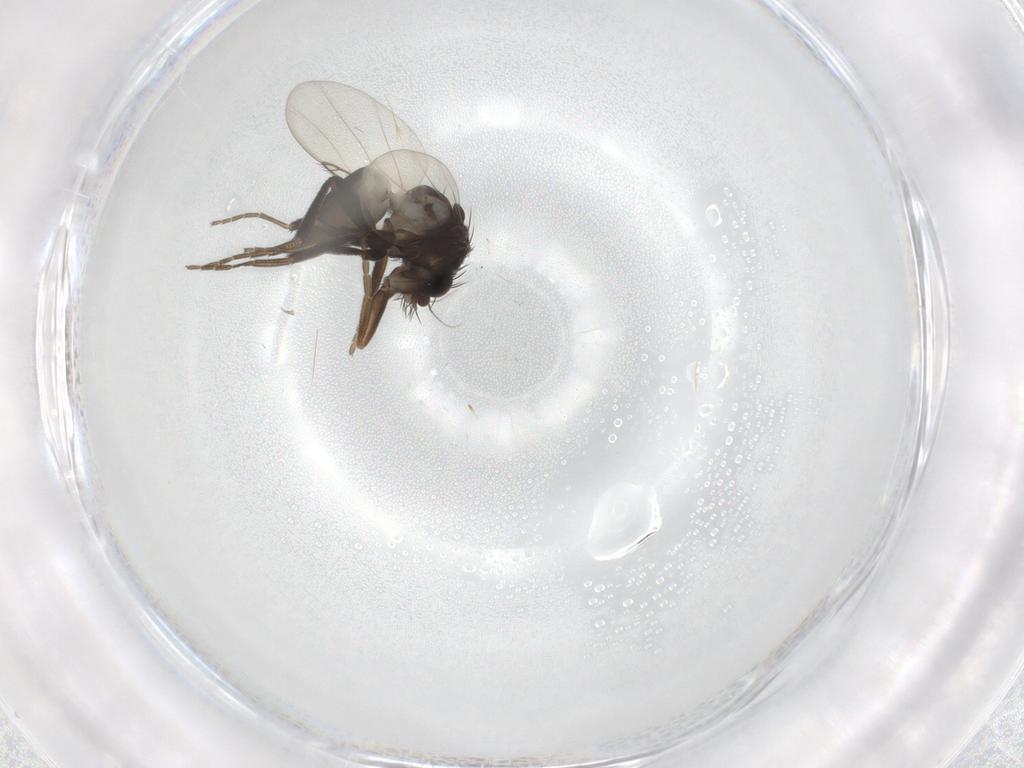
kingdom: Animalia
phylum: Arthropoda
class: Insecta
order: Diptera
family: Phoridae
